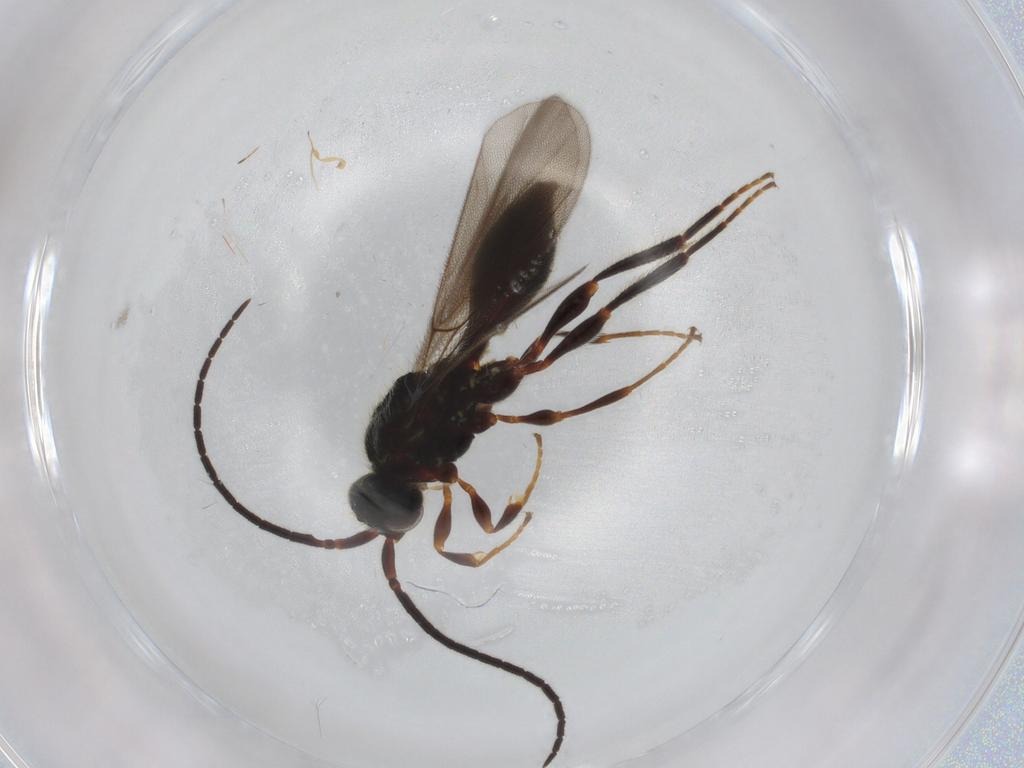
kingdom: Animalia
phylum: Arthropoda
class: Insecta
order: Hymenoptera
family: Scelionidae
